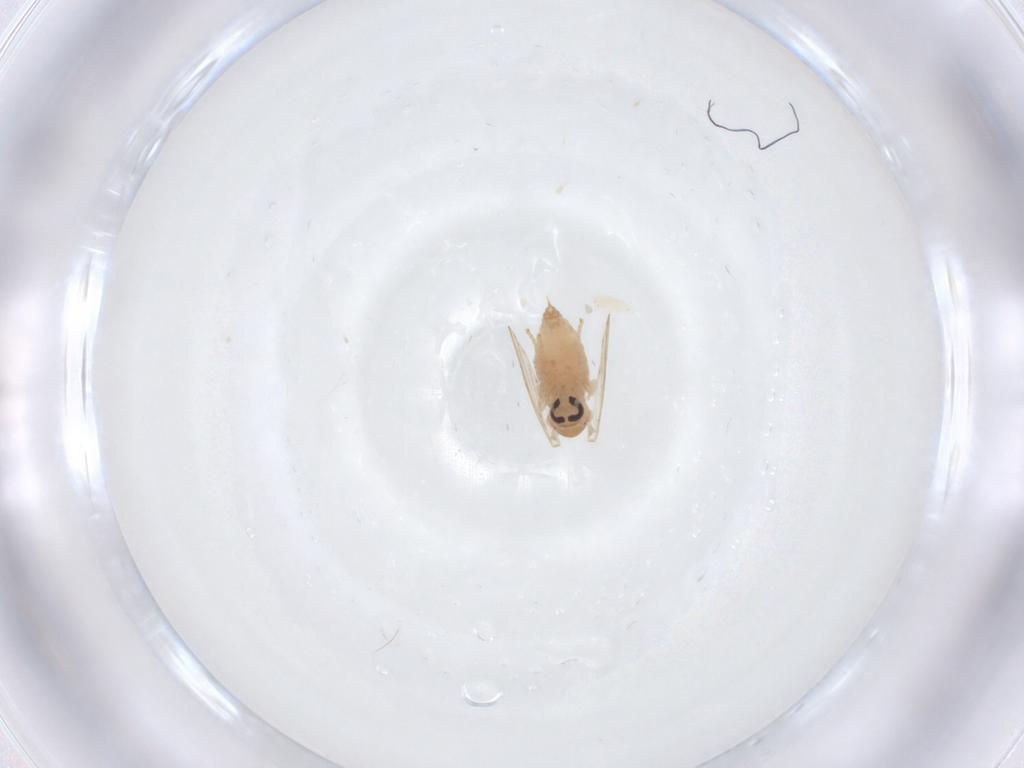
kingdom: Animalia
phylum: Arthropoda
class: Insecta
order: Diptera
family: Psychodidae
